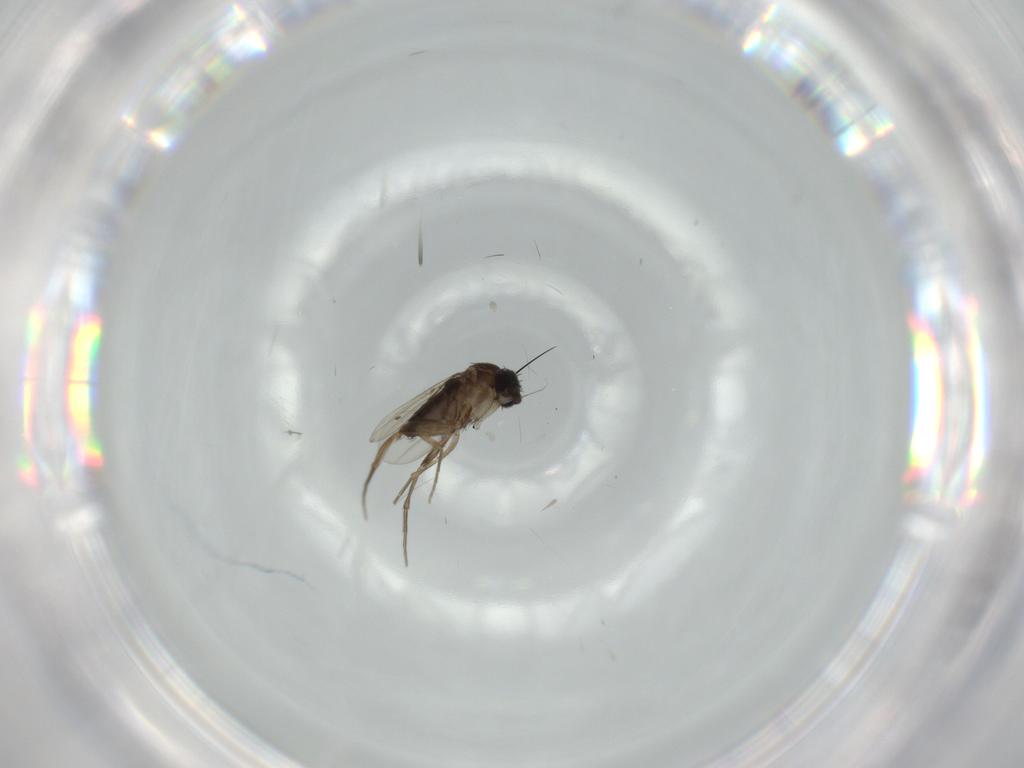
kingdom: Animalia
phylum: Arthropoda
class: Insecta
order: Diptera
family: Phoridae
